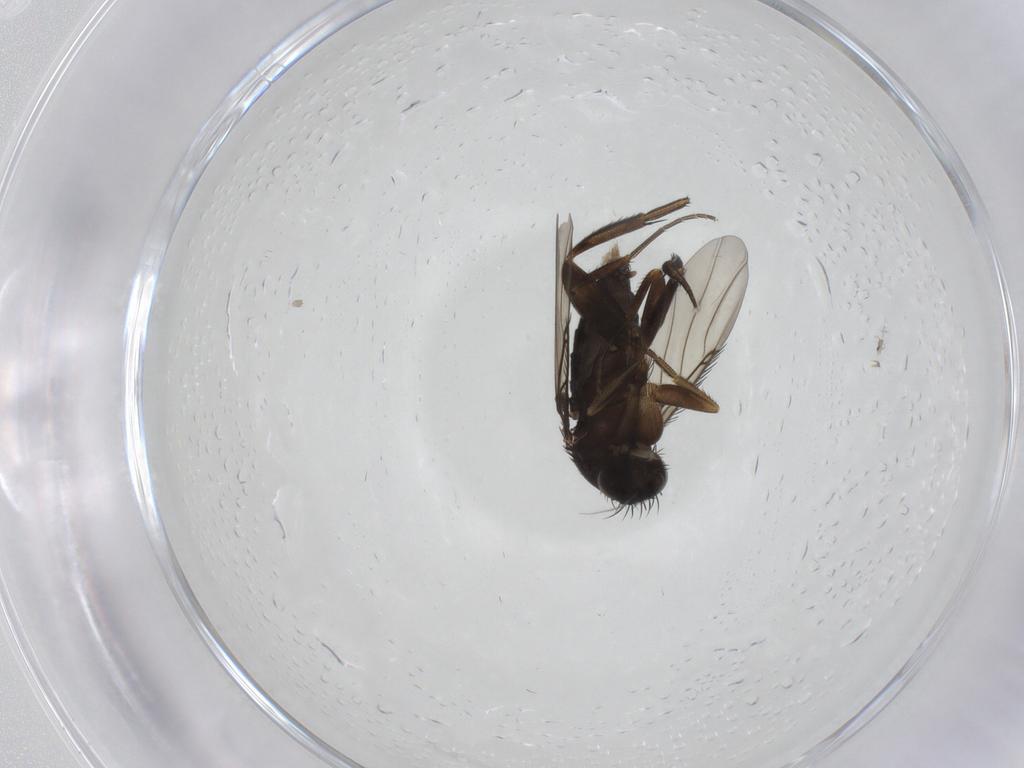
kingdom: Animalia
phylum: Arthropoda
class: Insecta
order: Diptera
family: Phoridae
